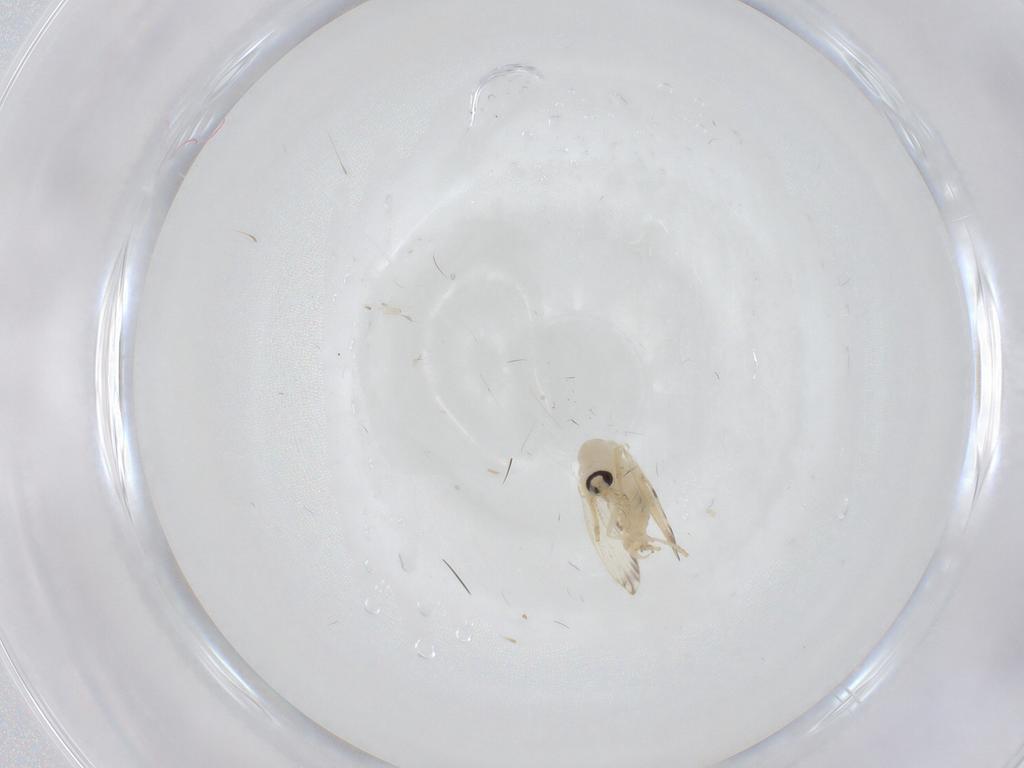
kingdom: Animalia
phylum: Arthropoda
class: Insecta
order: Diptera
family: Psychodidae
